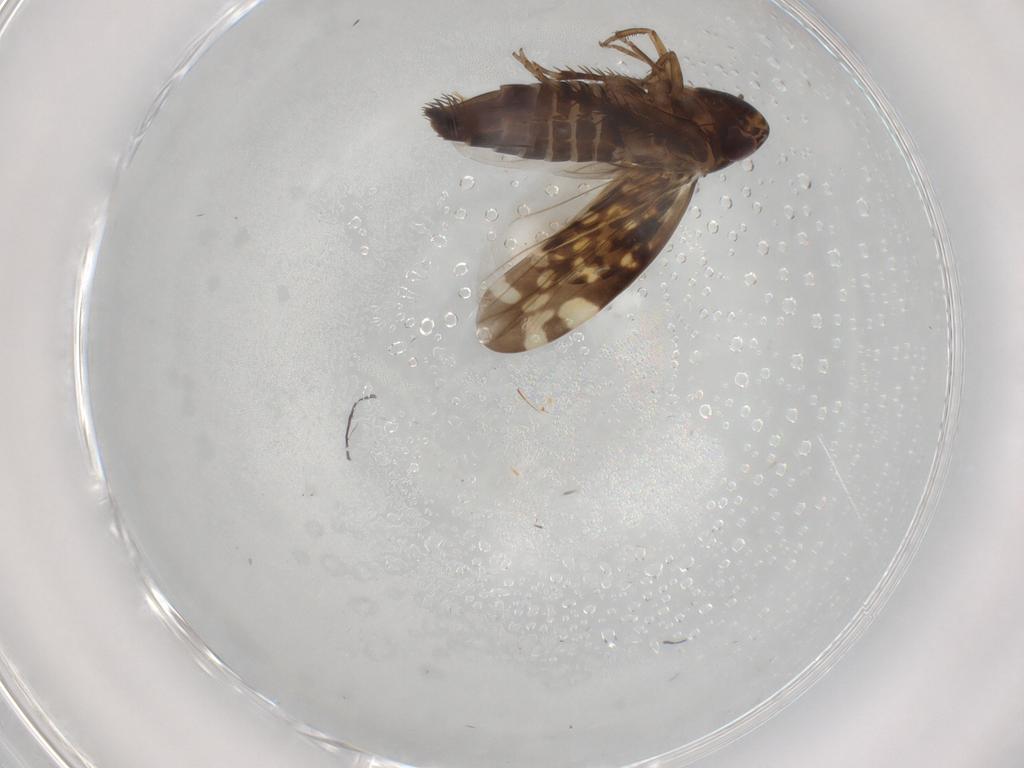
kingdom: Animalia
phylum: Arthropoda
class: Insecta
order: Hemiptera
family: Cicadellidae
